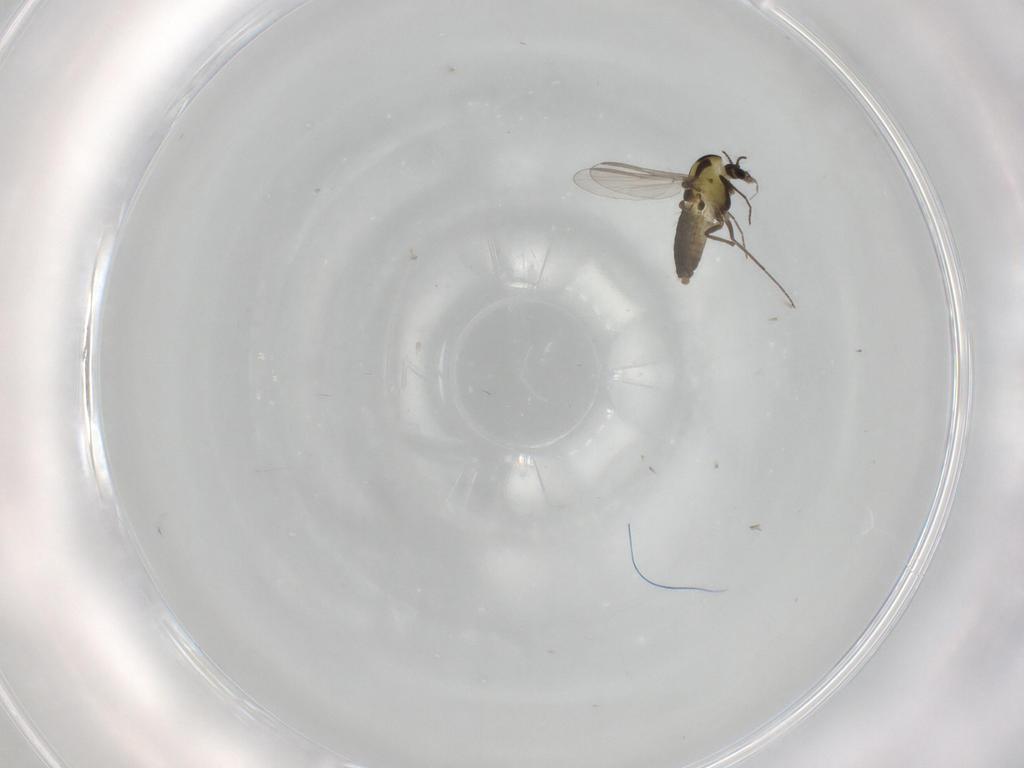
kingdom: Animalia
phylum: Arthropoda
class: Insecta
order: Diptera
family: Chironomidae
